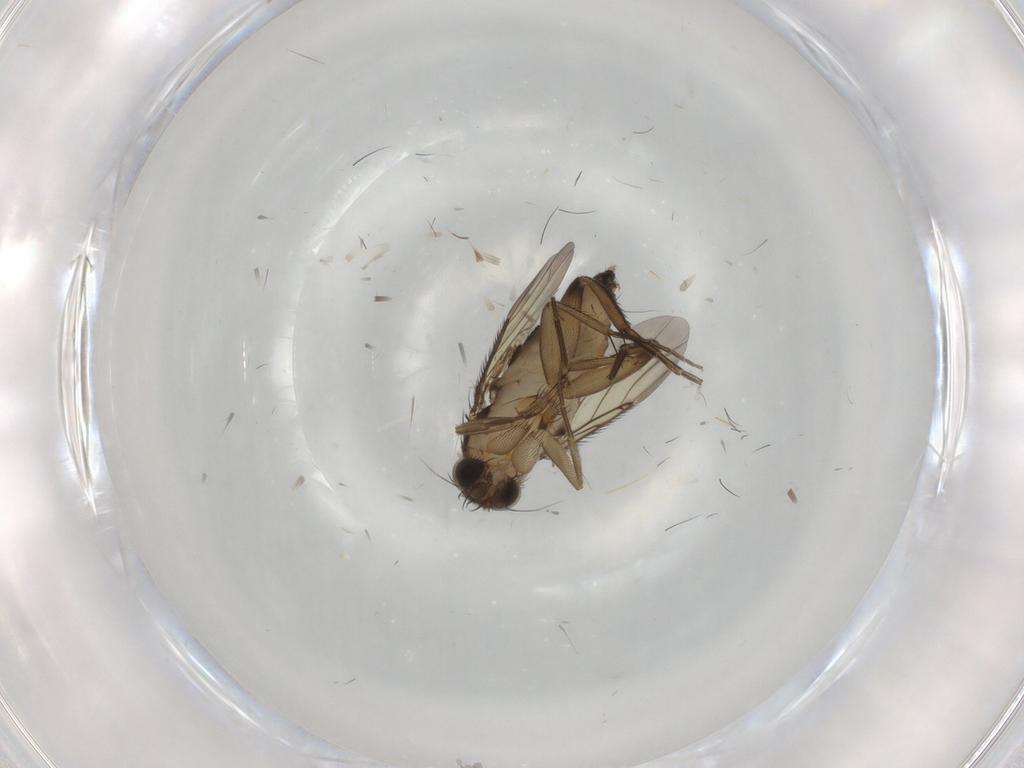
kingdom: Animalia
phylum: Arthropoda
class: Insecta
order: Diptera
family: Phoridae
